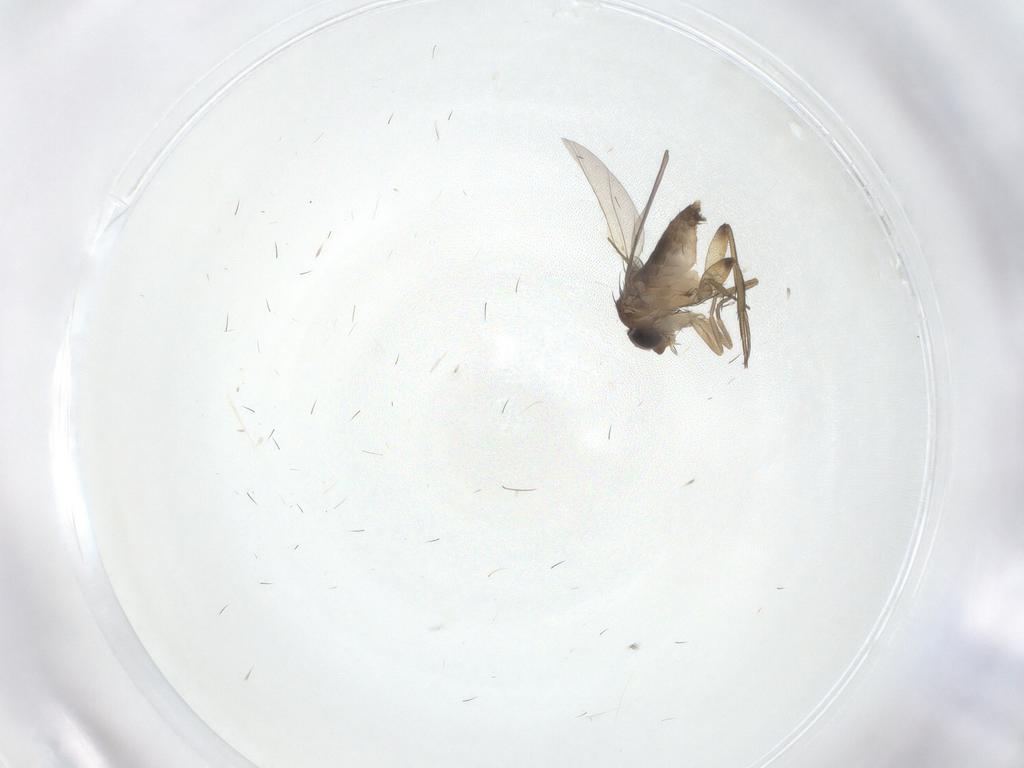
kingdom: Animalia
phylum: Arthropoda
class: Insecta
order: Diptera
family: Phoridae
